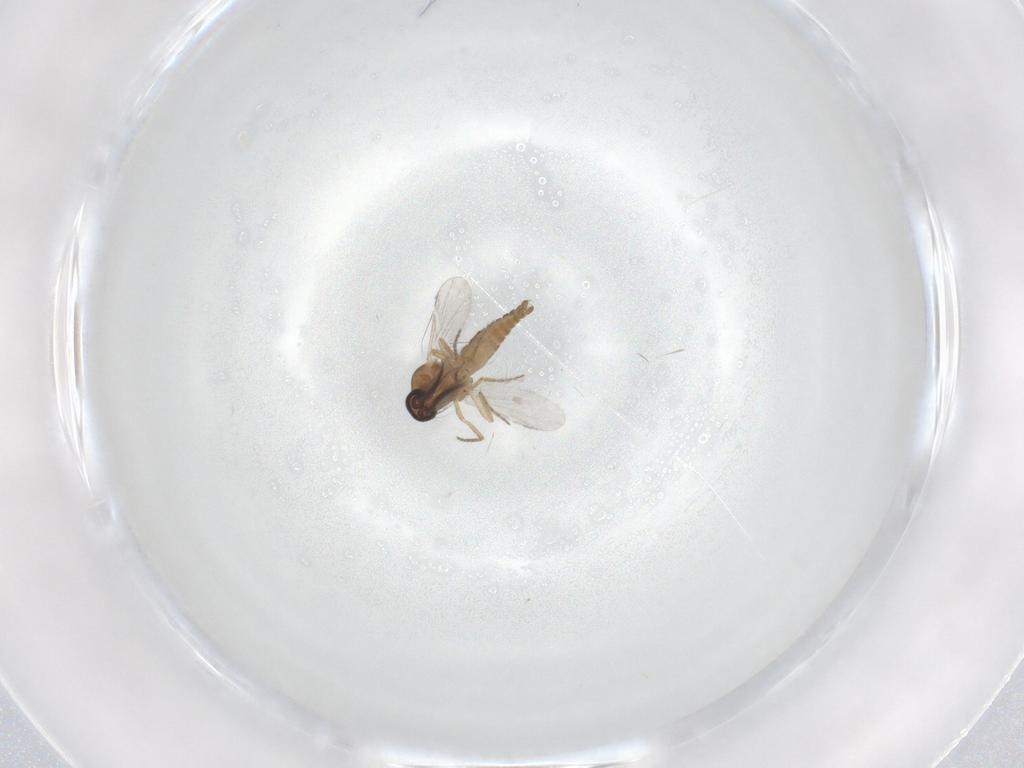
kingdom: Animalia
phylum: Arthropoda
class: Insecta
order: Diptera
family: Ceratopogonidae
